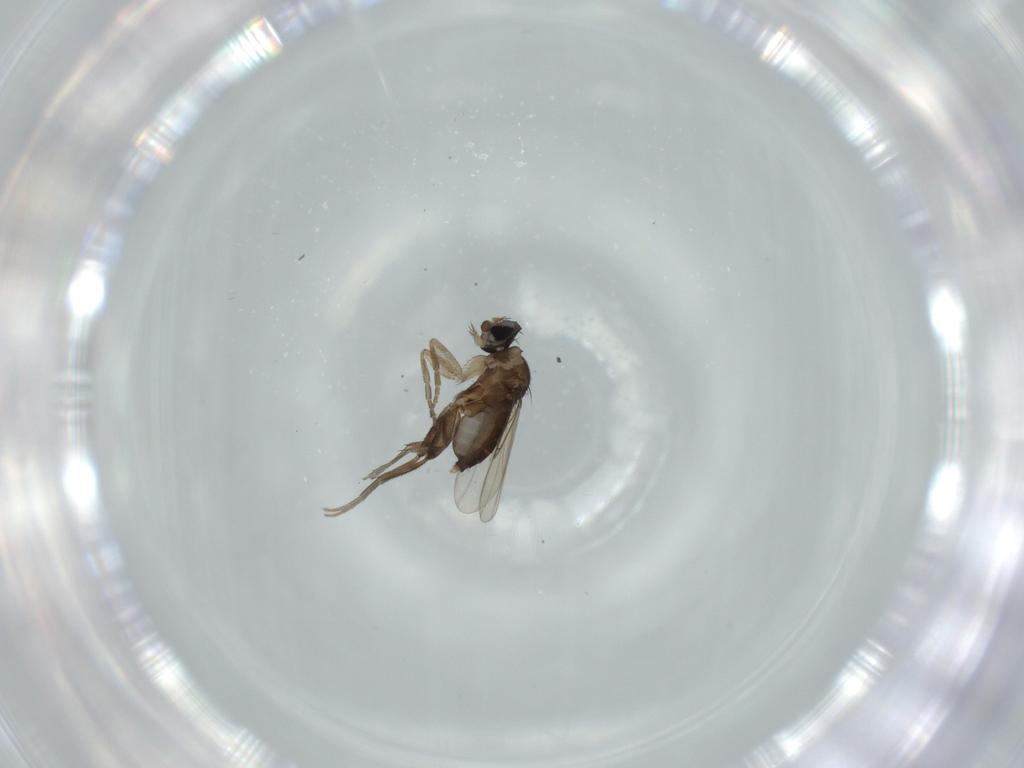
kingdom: Animalia
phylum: Arthropoda
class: Insecta
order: Diptera
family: Phoridae
